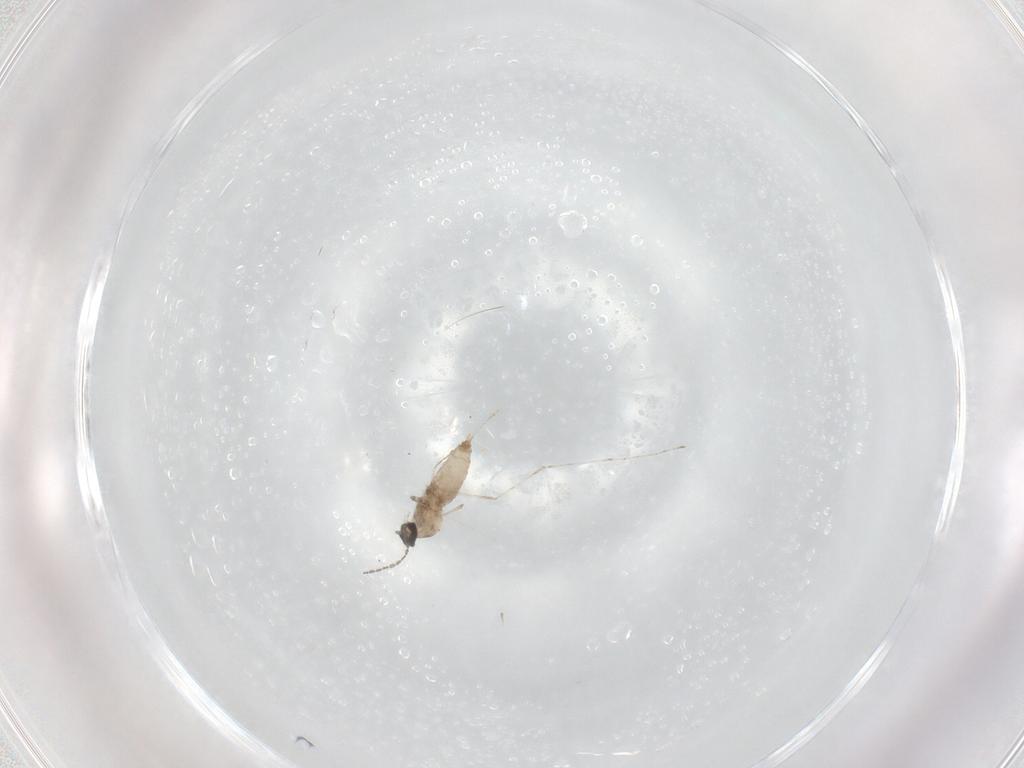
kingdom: Animalia
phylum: Arthropoda
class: Insecta
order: Diptera
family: Cecidomyiidae
